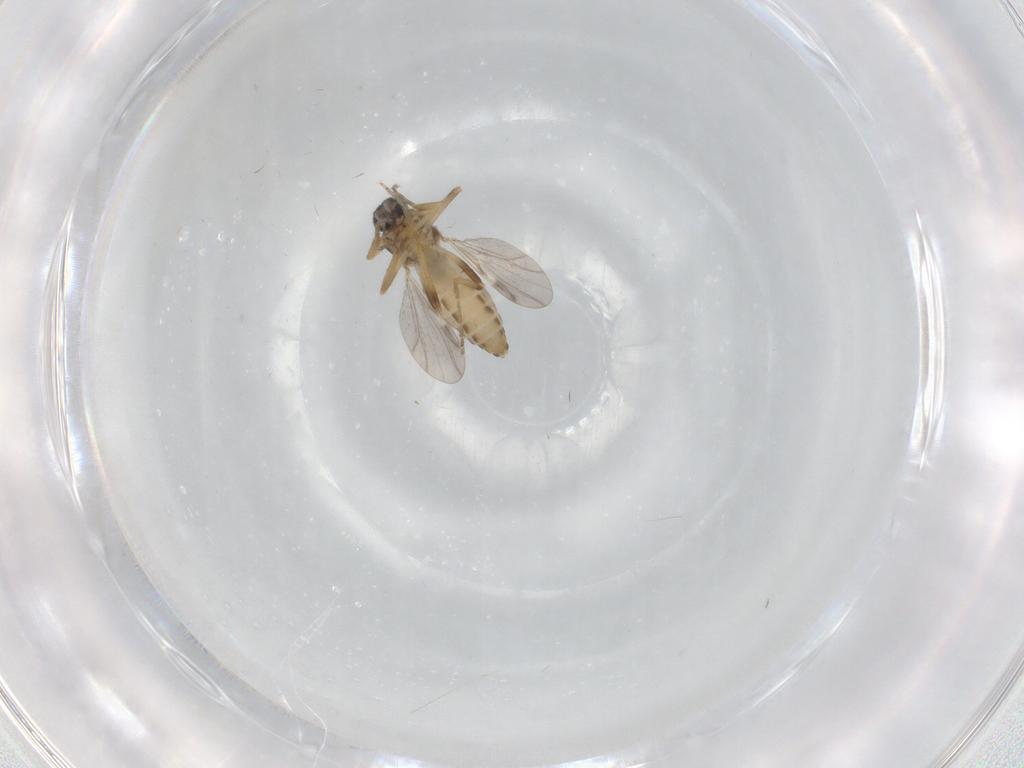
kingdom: Animalia
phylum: Arthropoda
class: Insecta
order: Diptera
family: Ceratopogonidae
